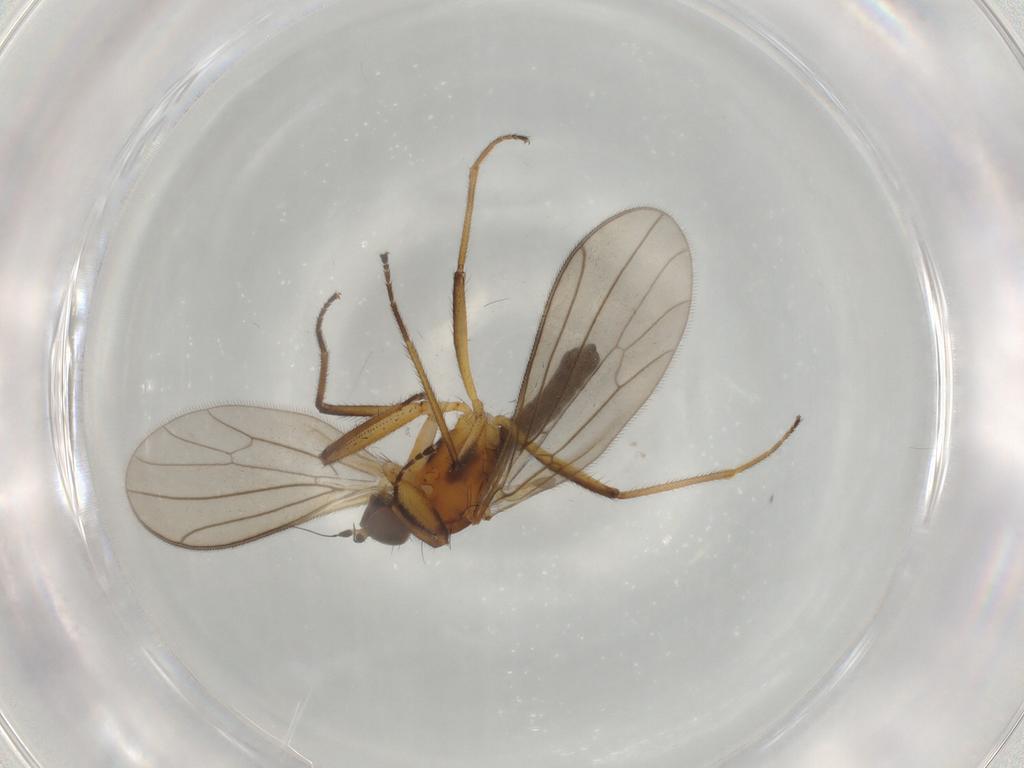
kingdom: Animalia
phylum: Arthropoda
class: Insecta
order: Diptera
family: Empididae
